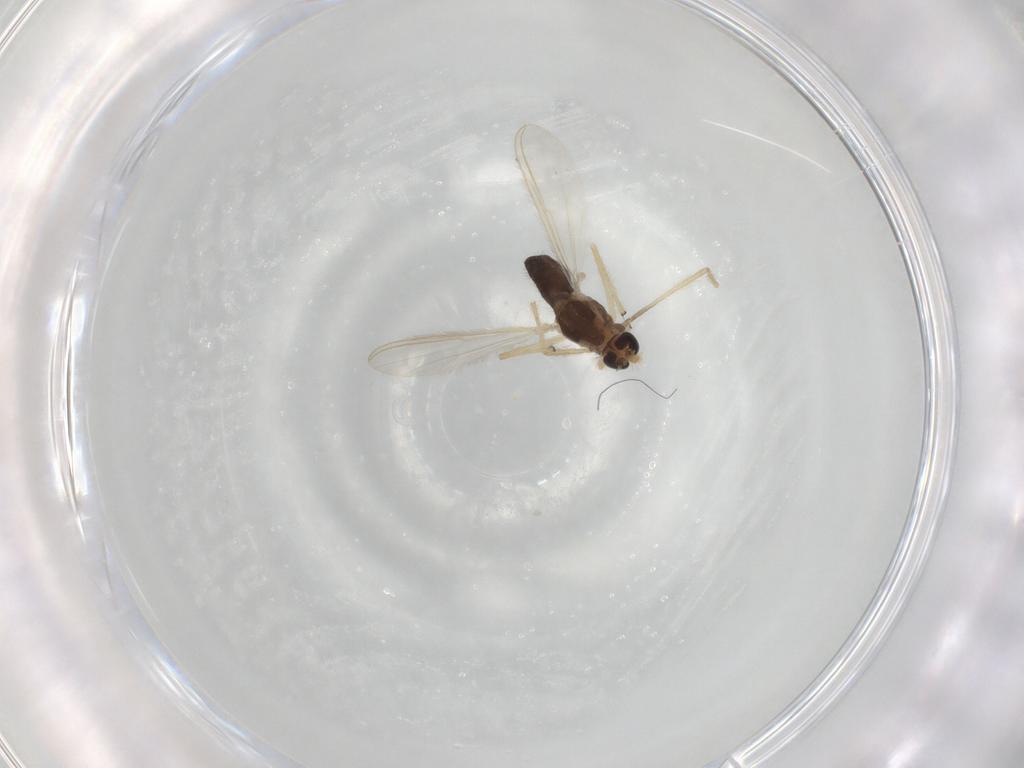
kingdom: Animalia
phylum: Arthropoda
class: Insecta
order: Diptera
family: Chironomidae
